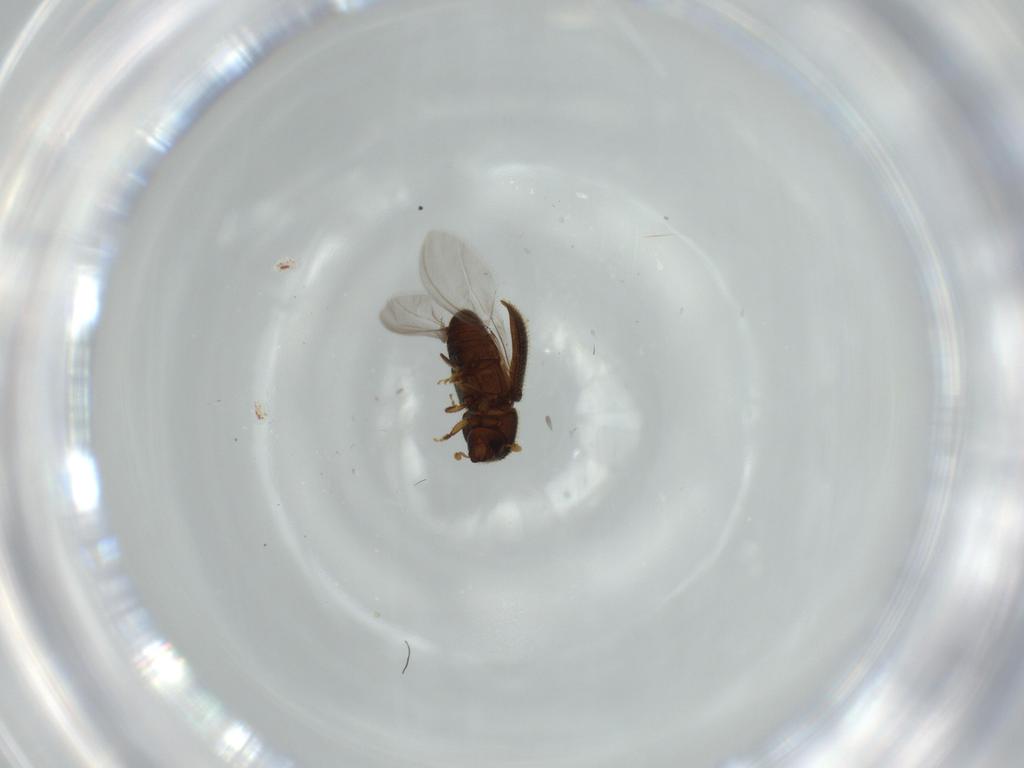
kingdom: Animalia
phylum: Arthropoda
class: Insecta
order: Coleoptera
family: Curculionidae
